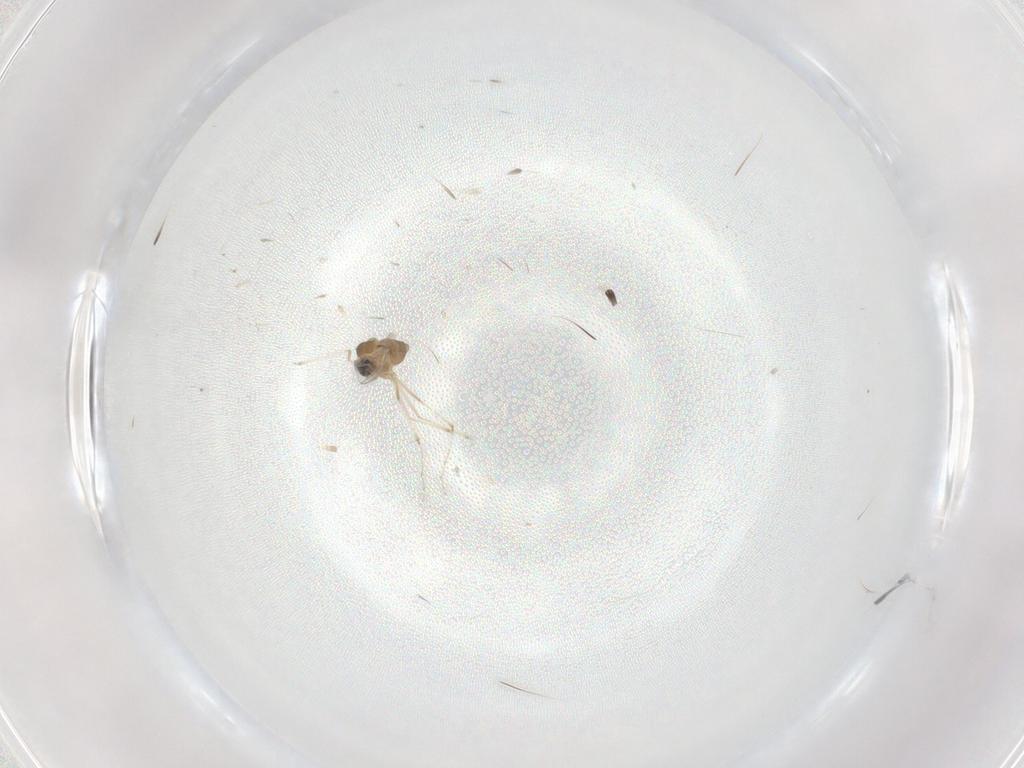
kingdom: Animalia
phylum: Arthropoda
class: Insecta
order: Diptera
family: Cecidomyiidae
